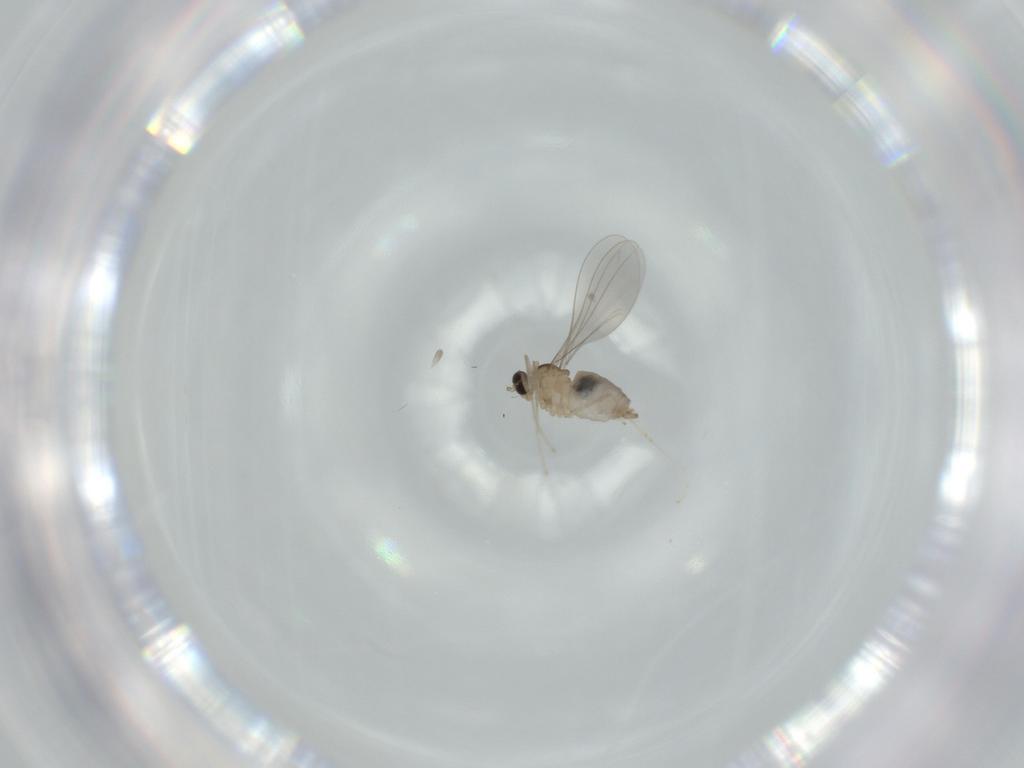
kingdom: Animalia
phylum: Arthropoda
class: Insecta
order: Diptera
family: Cecidomyiidae
